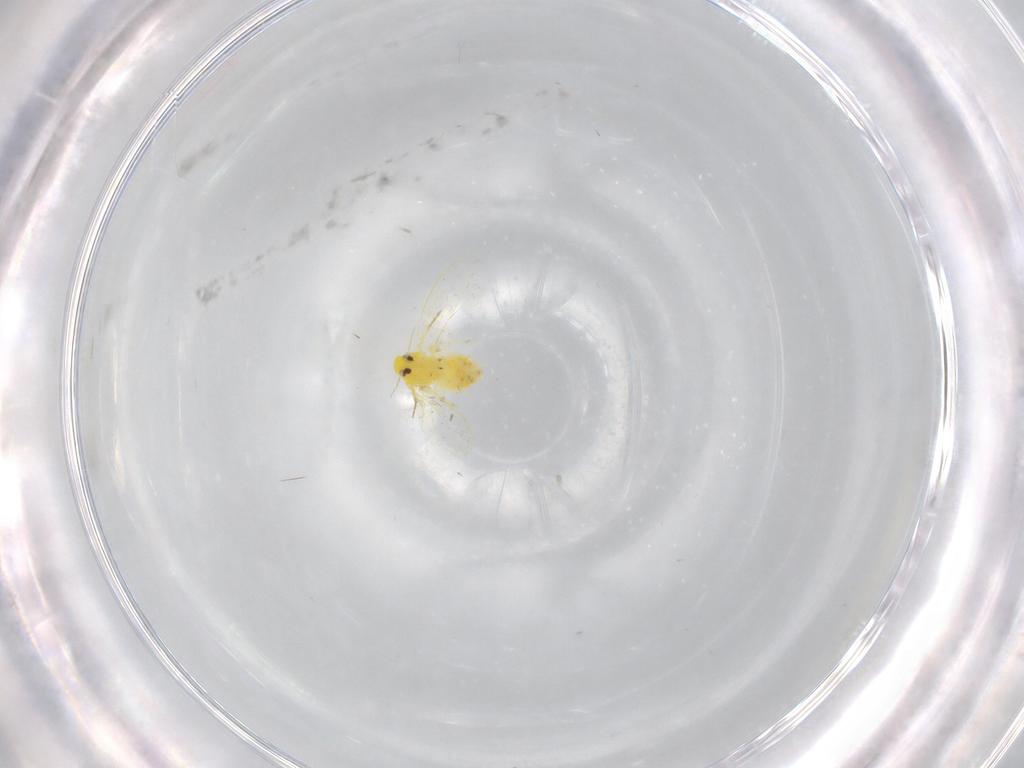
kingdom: Animalia
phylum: Arthropoda
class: Insecta
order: Hemiptera
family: Aleyrodidae
